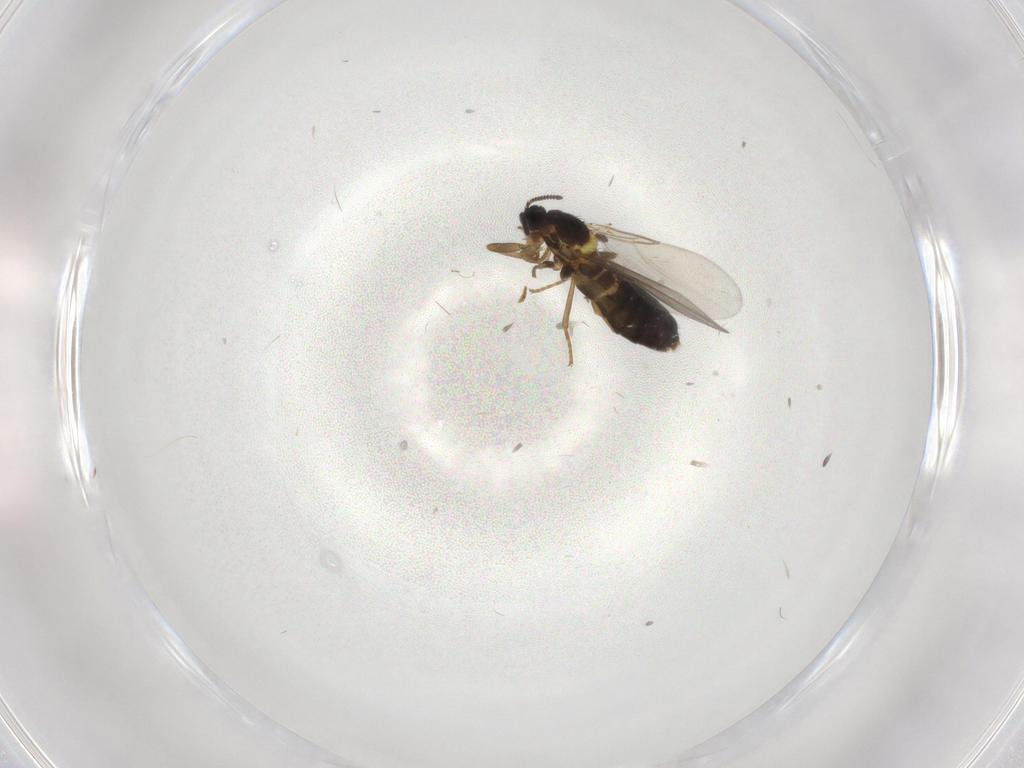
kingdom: Animalia
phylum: Arthropoda
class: Insecta
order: Diptera
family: Scatopsidae
